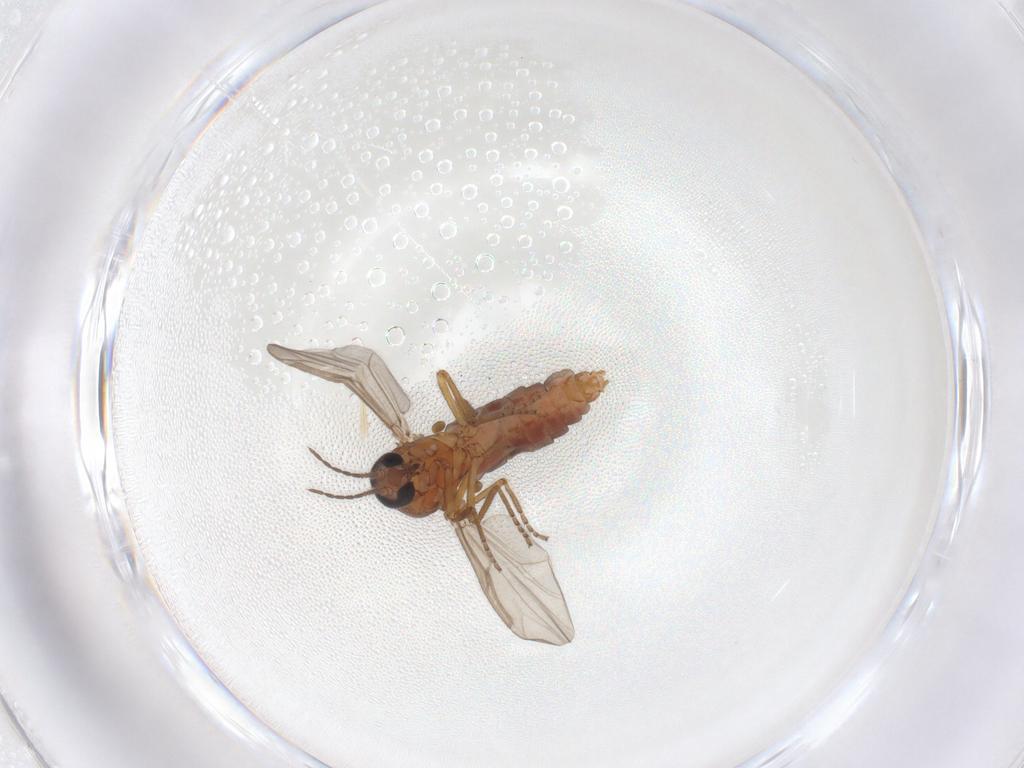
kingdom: Animalia
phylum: Arthropoda
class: Insecta
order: Diptera
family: Ceratopogonidae
